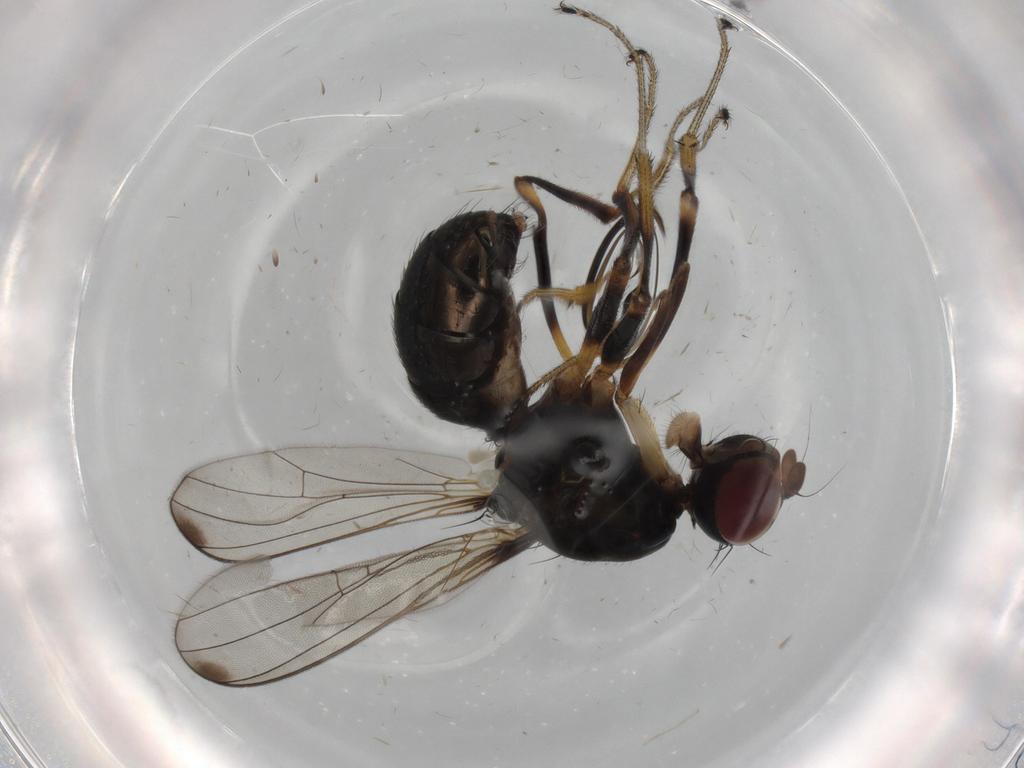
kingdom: Animalia
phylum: Arthropoda
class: Insecta
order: Diptera
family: Sepsidae
